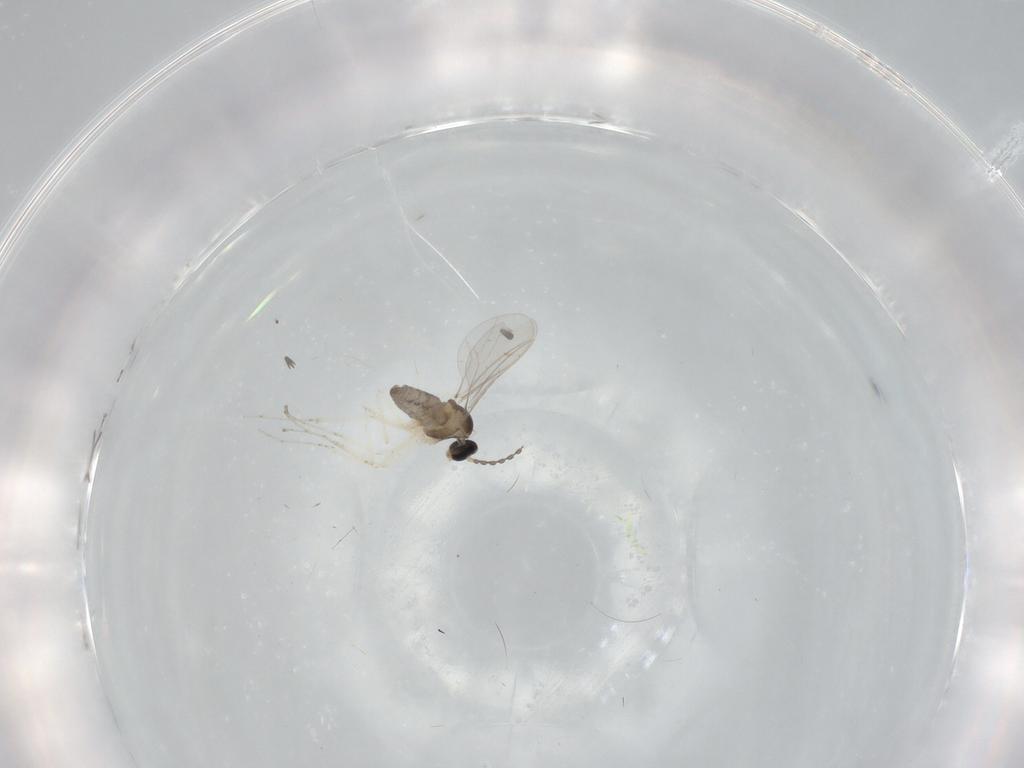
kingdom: Animalia
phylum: Arthropoda
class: Insecta
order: Diptera
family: Cecidomyiidae
